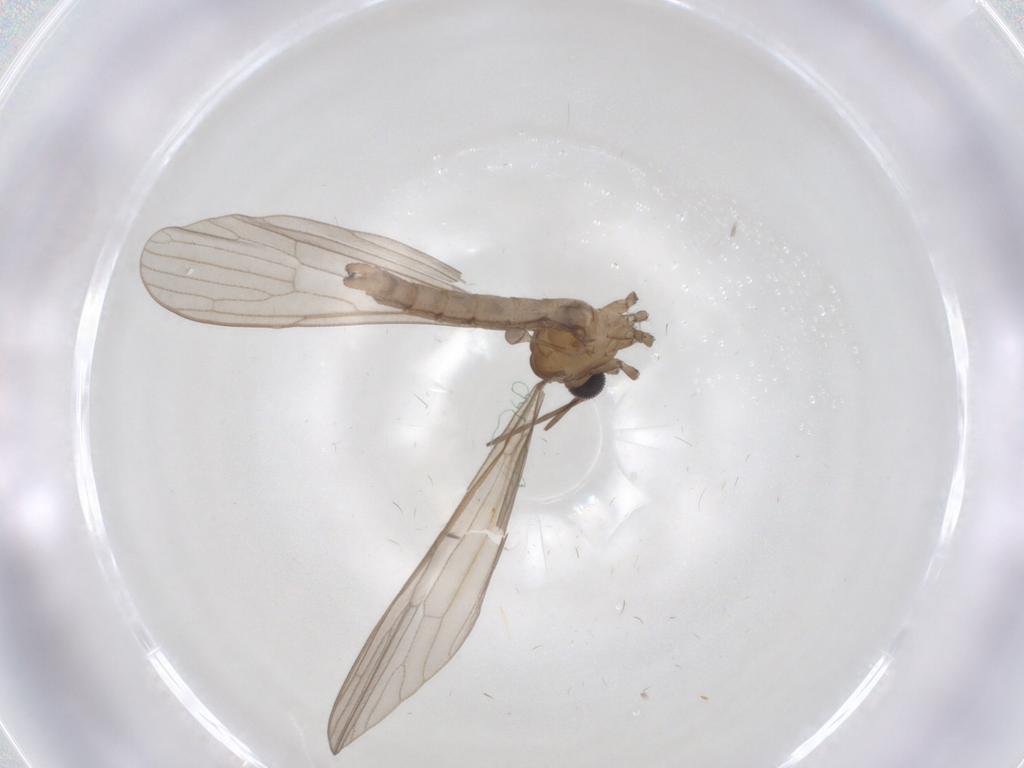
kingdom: Animalia
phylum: Arthropoda
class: Insecta
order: Diptera
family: Limoniidae
